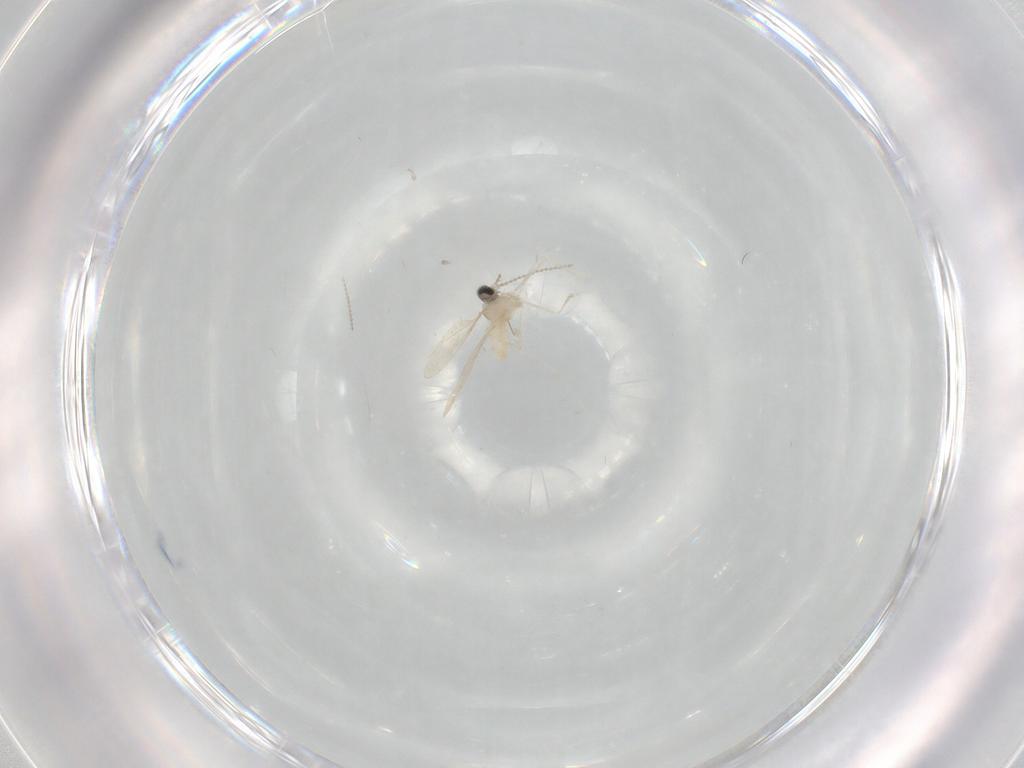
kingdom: Animalia
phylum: Arthropoda
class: Insecta
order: Diptera
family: Cecidomyiidae
